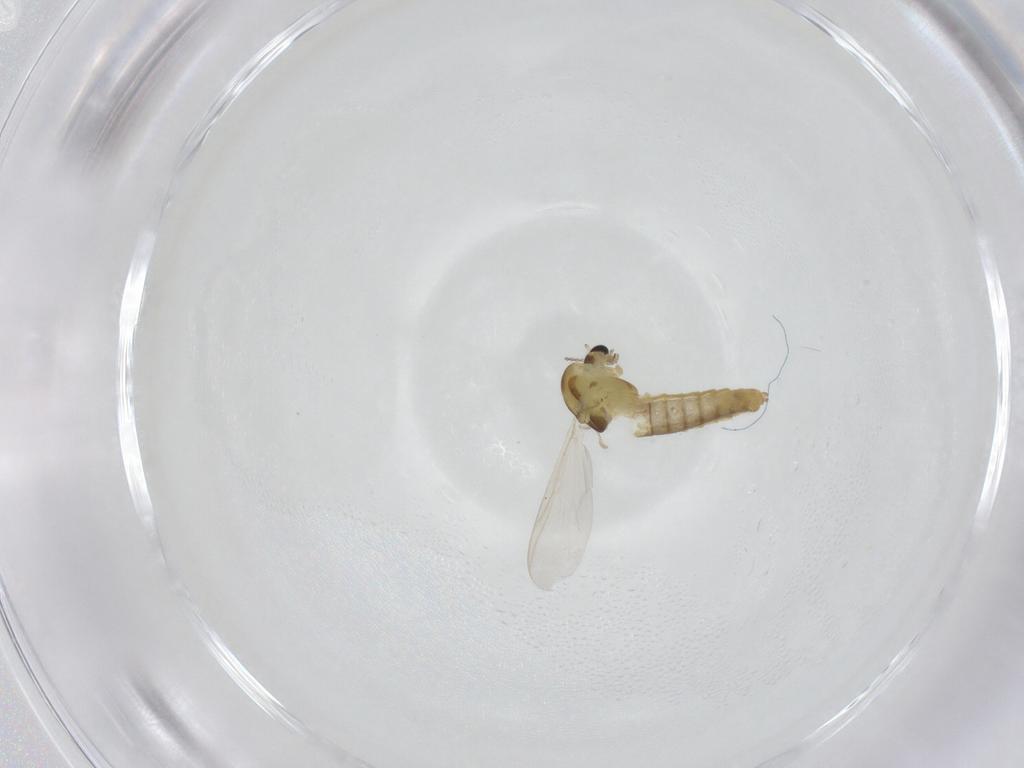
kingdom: Animalia
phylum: Arthropoda
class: Insecta
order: Diptera
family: Chironomidae
